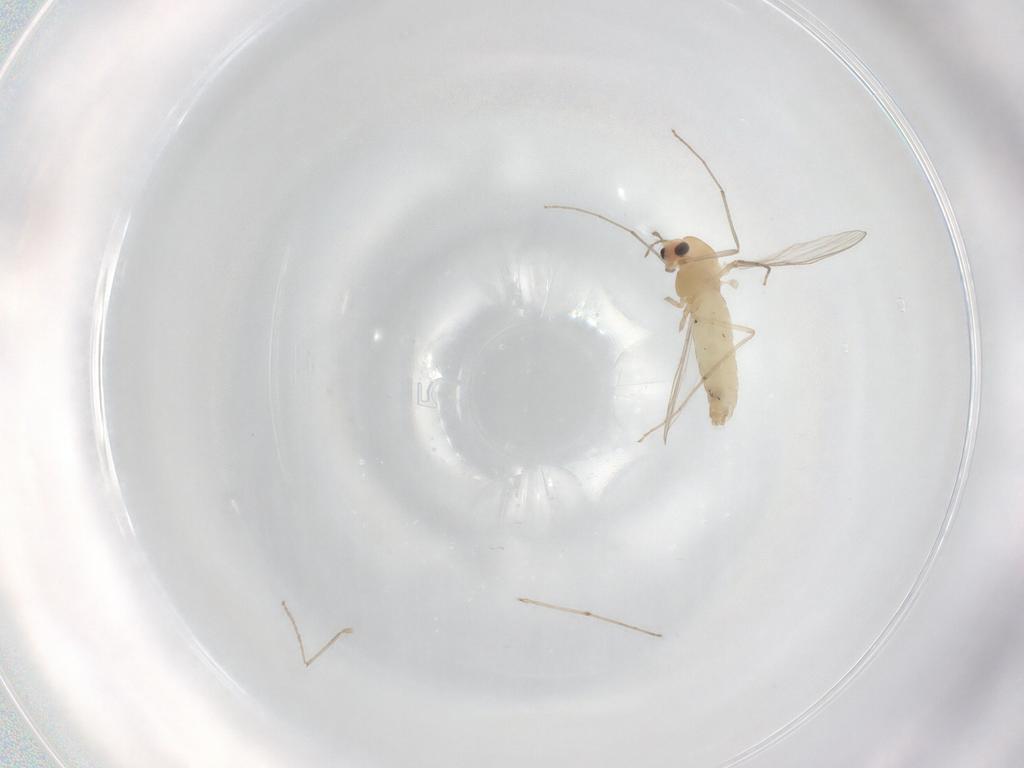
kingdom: Animalia
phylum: Arthropoda
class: Insecta
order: Diptera
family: Chironomidae
